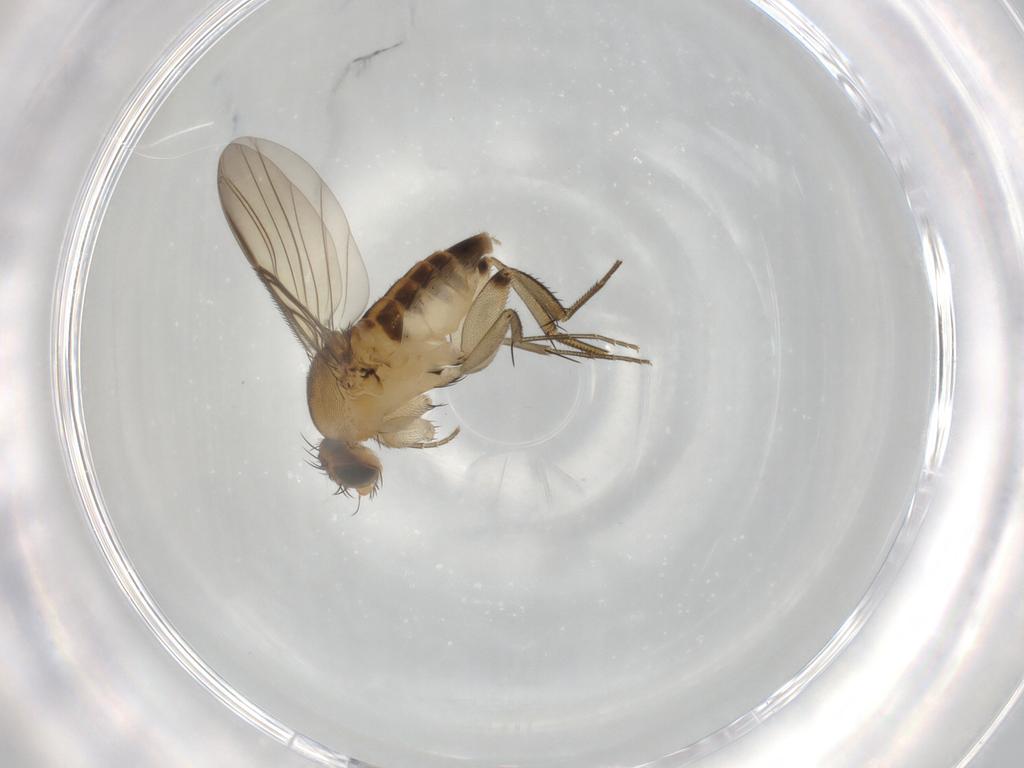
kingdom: Animalia
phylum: Arthropoda
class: Insecta
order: Diptera
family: Phoridae
